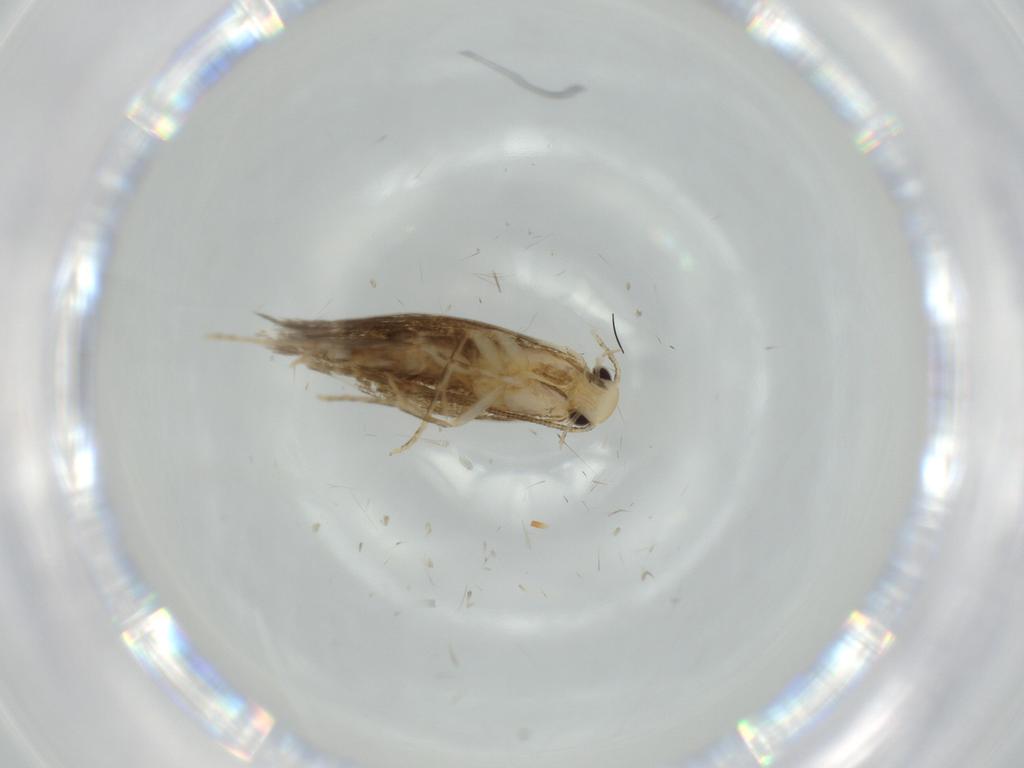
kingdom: Animalia
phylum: Arthropoda
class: Insecta
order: Lepidoptera
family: Tineidae
